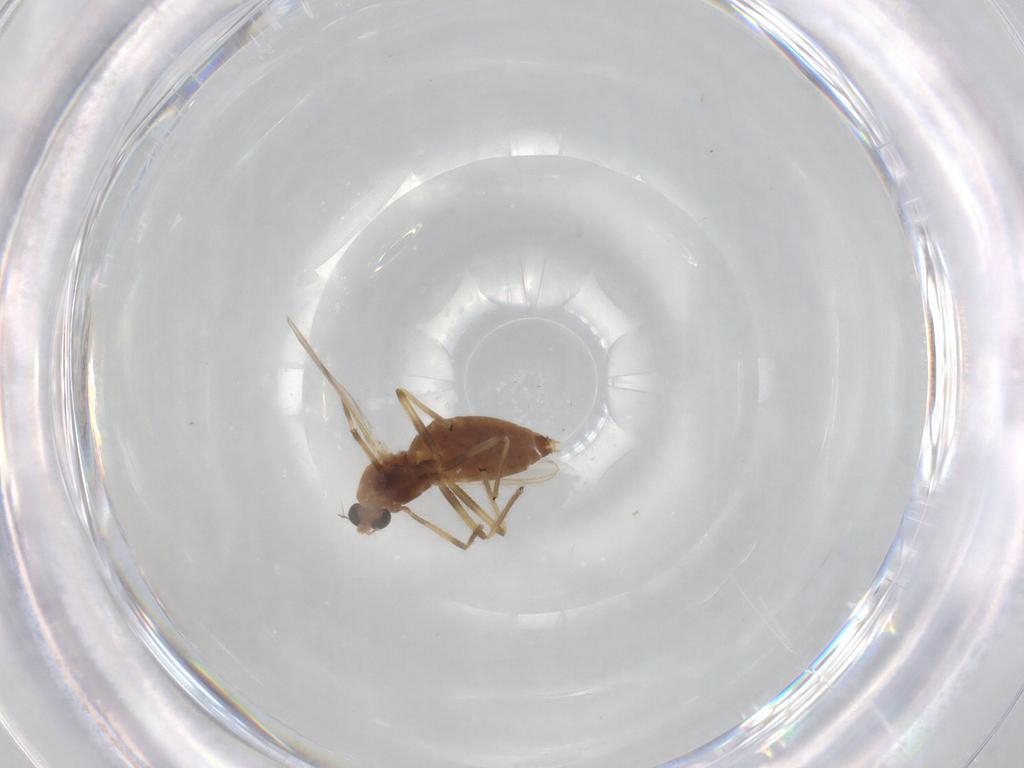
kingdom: Animalia
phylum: Arthropoda
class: Insecta
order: Diptera
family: Chironomidae
